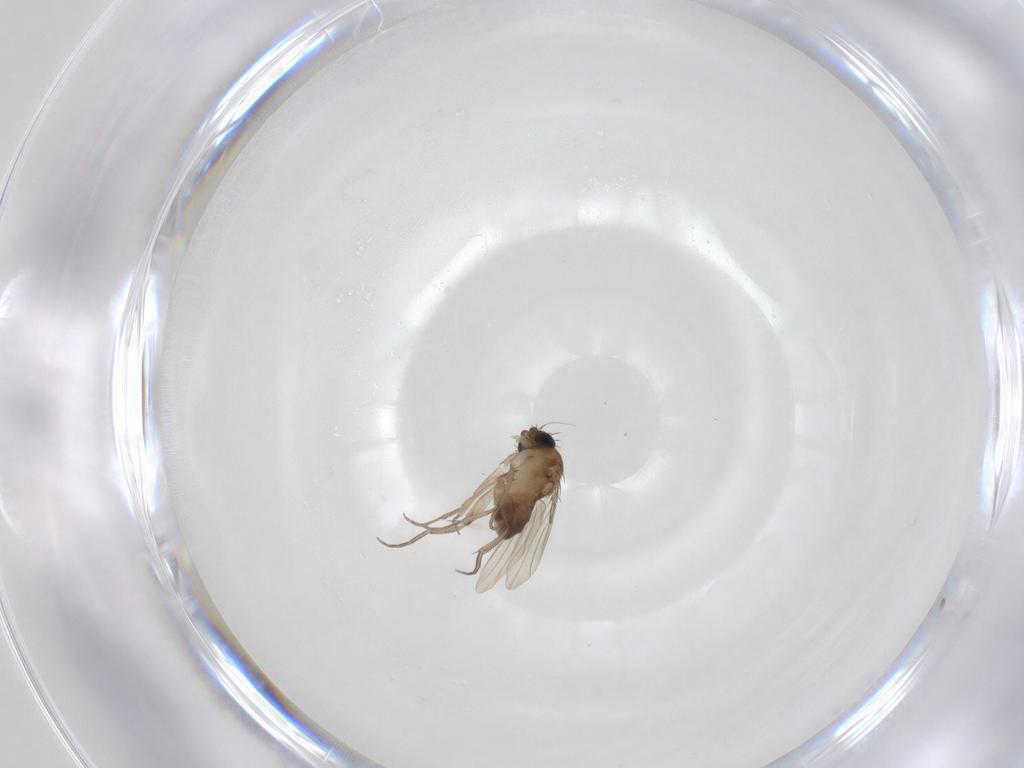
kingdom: Animalia
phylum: Arthropoda
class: Insecta
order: Diptera
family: Phoridae
